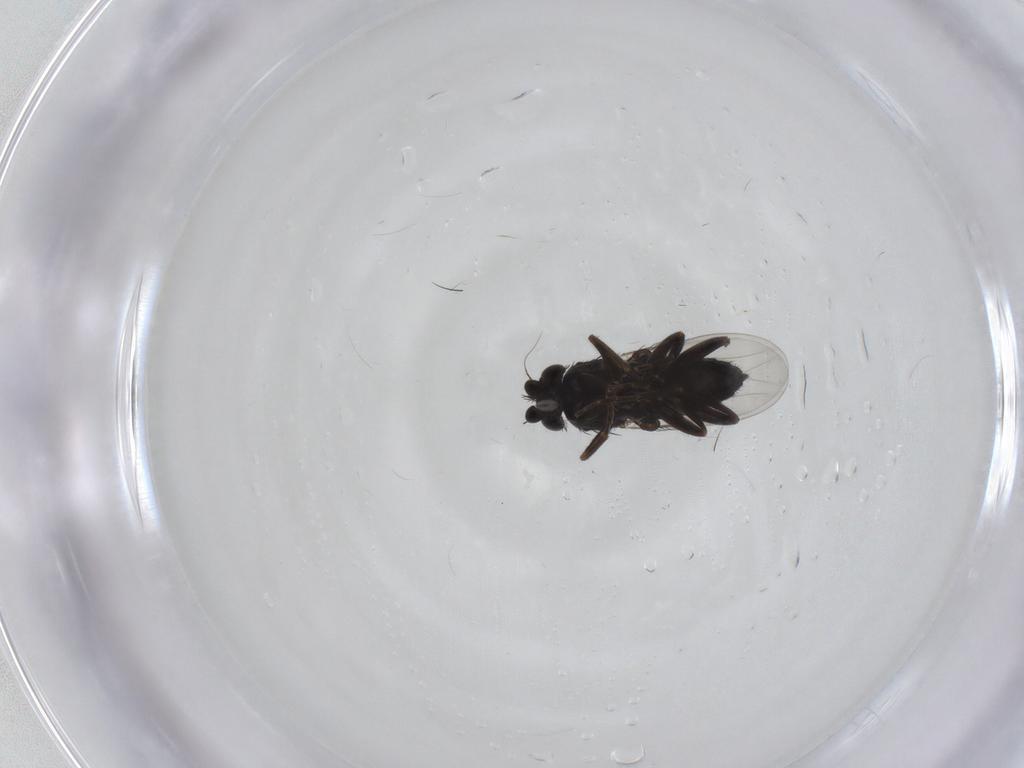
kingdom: Animalia
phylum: Arthropoda
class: Insecta
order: Diptera
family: Phoridae
